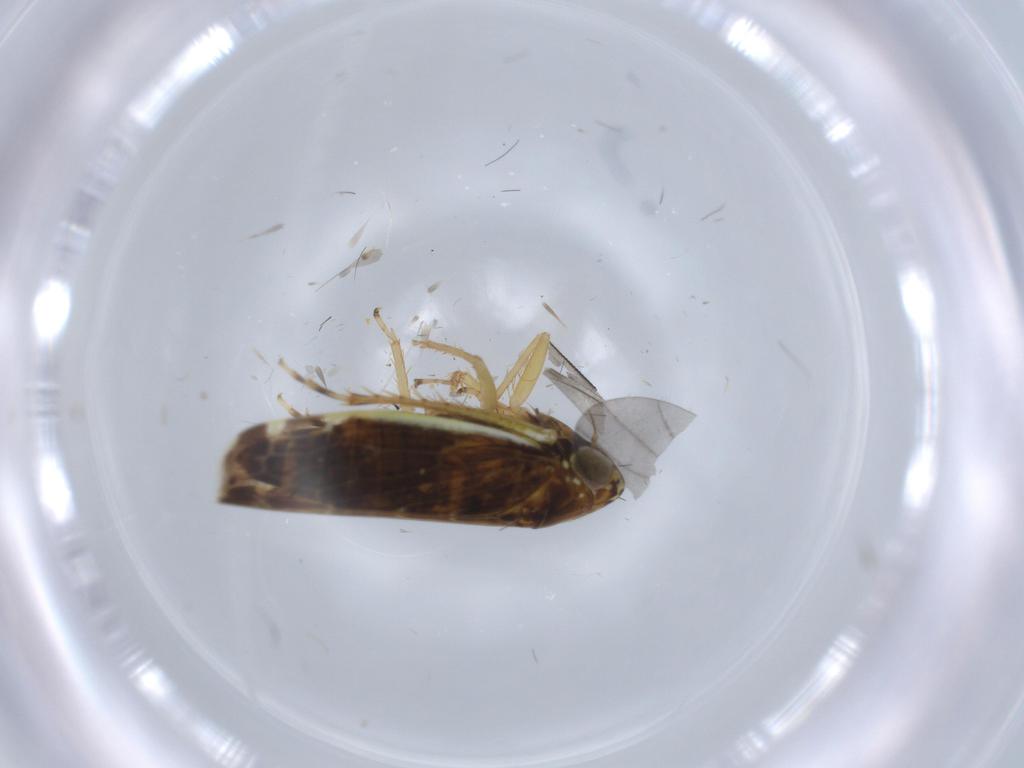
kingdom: Animalia
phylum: Arthropoda
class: Insecta
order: Hemiptera
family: Cicadellidae
